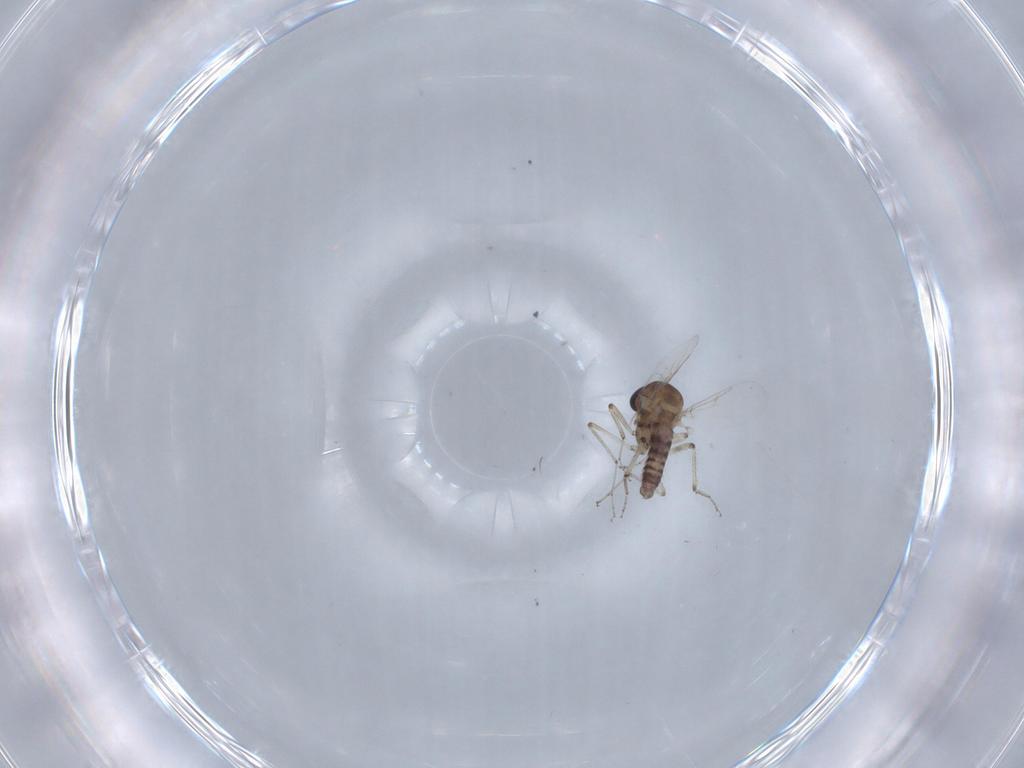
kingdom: Animalia
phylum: Arthropoda
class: Insecta
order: Diptera
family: Ceratopogonidae
